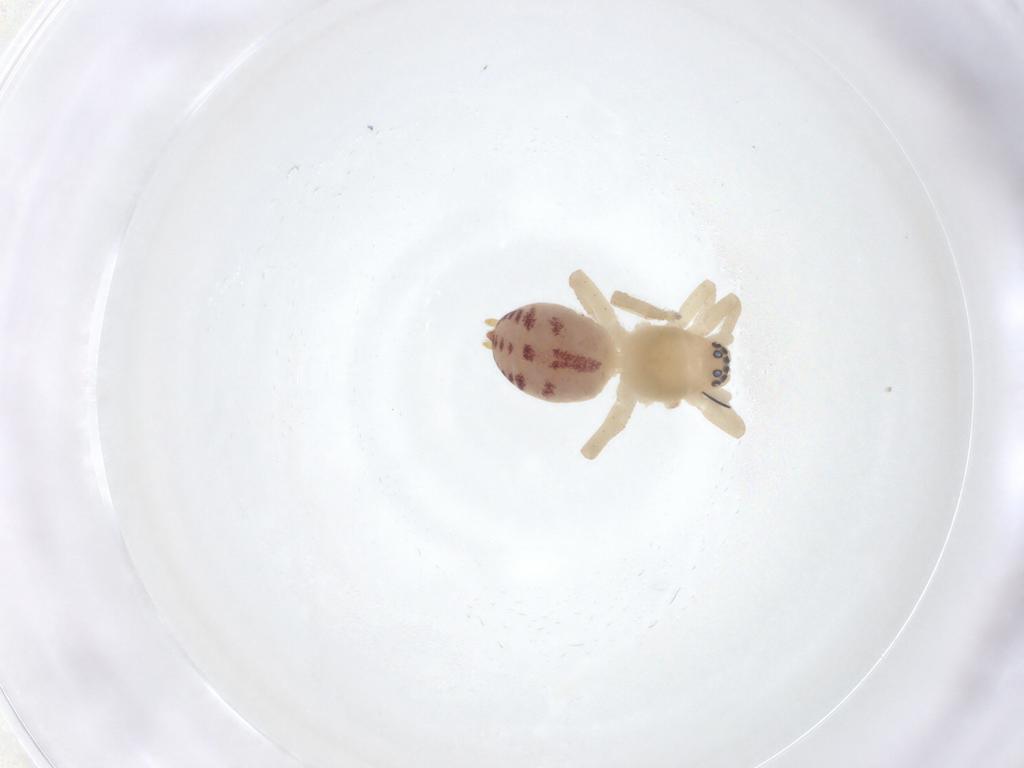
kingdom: Animalia
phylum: Arthropoda
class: Arachnida
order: Araneae
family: Clubionidae
